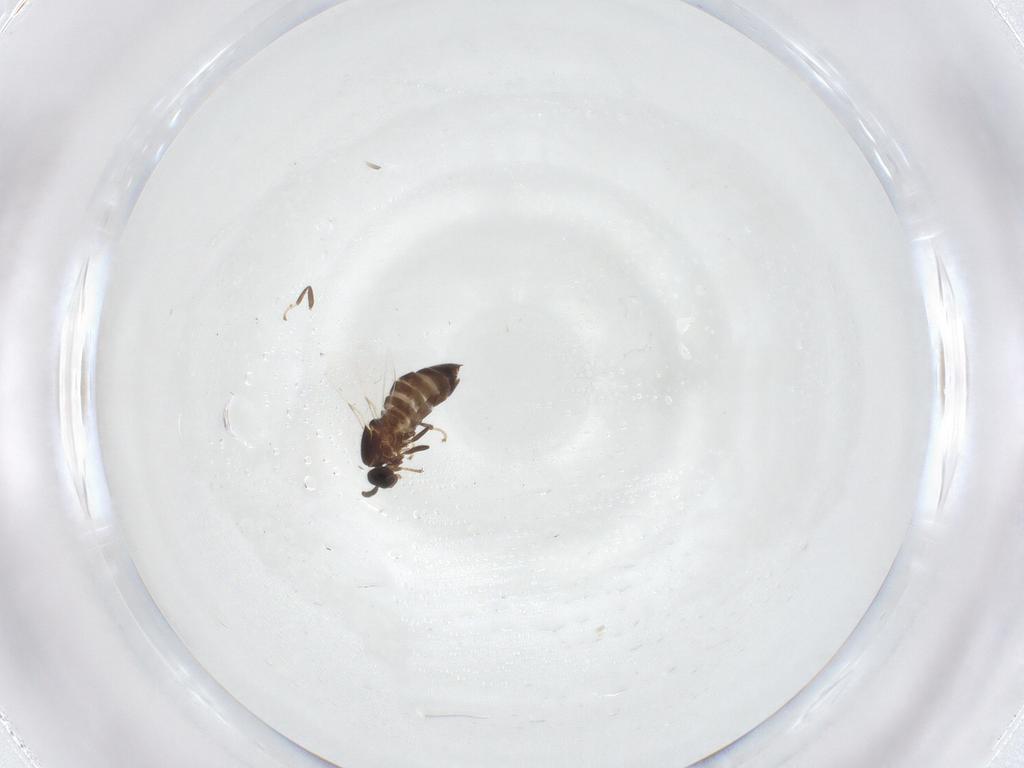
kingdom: Animalia
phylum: Arthropoda
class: Insecta
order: Diptera
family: Scatopsidae
